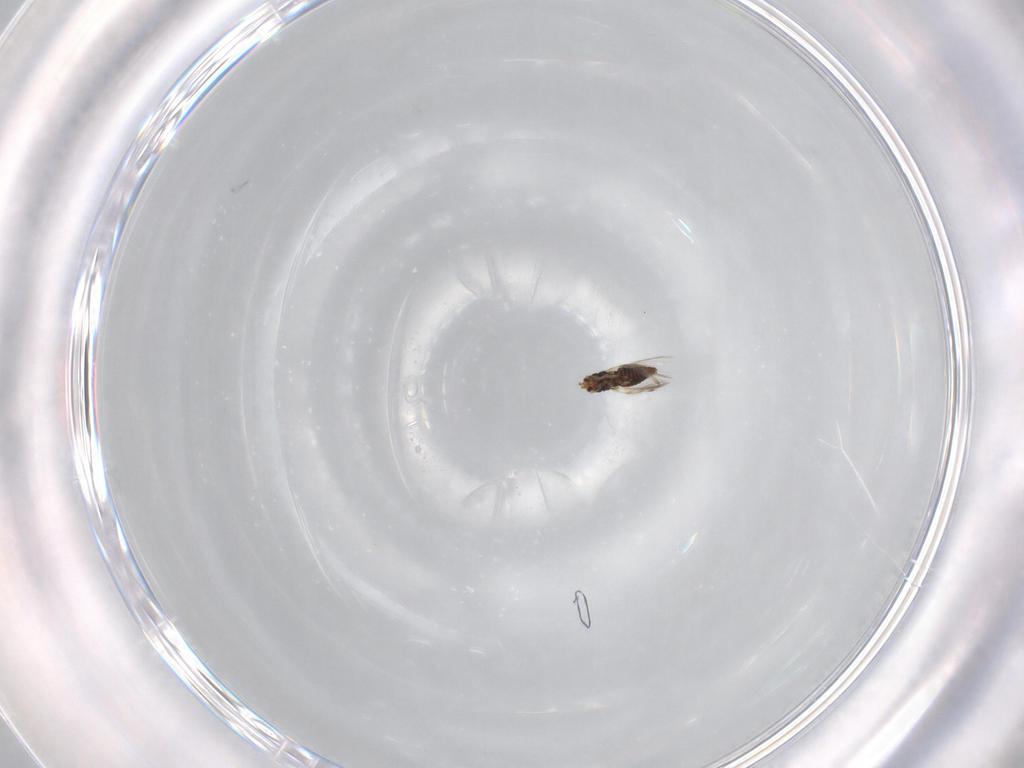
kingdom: Animalia
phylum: Arthropoda
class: Insecta
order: Thysanoptera
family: Thripidae
